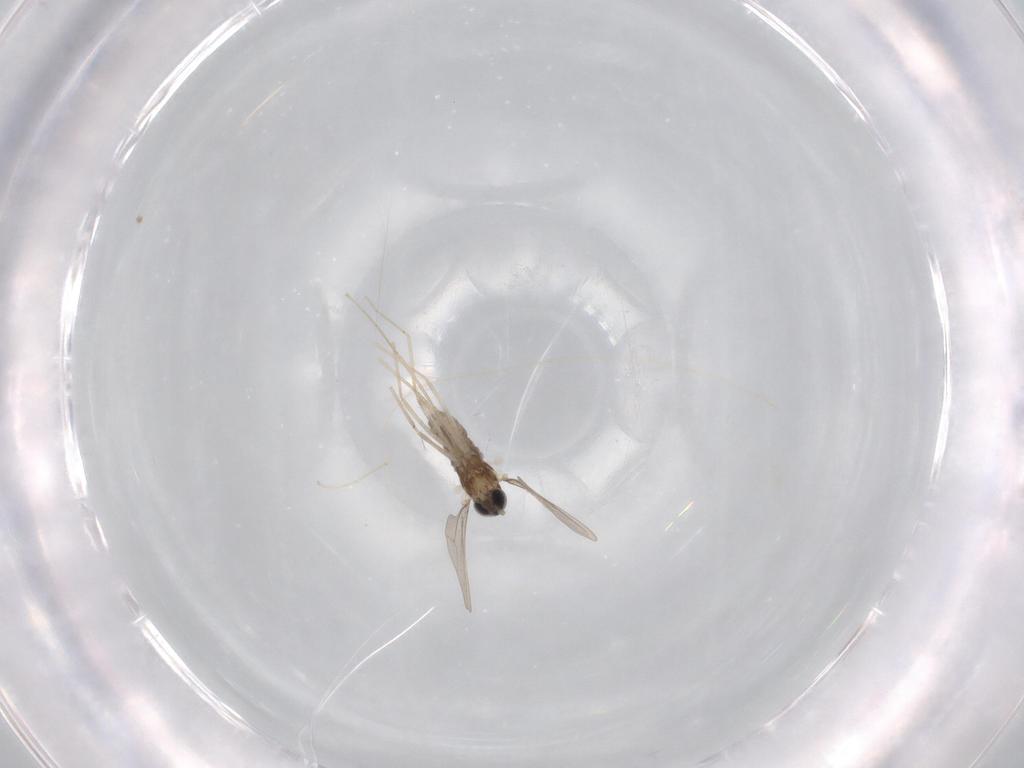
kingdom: Animalia
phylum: Arthropoda
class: Insecta
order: Diptera
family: Cecidomyiidae
